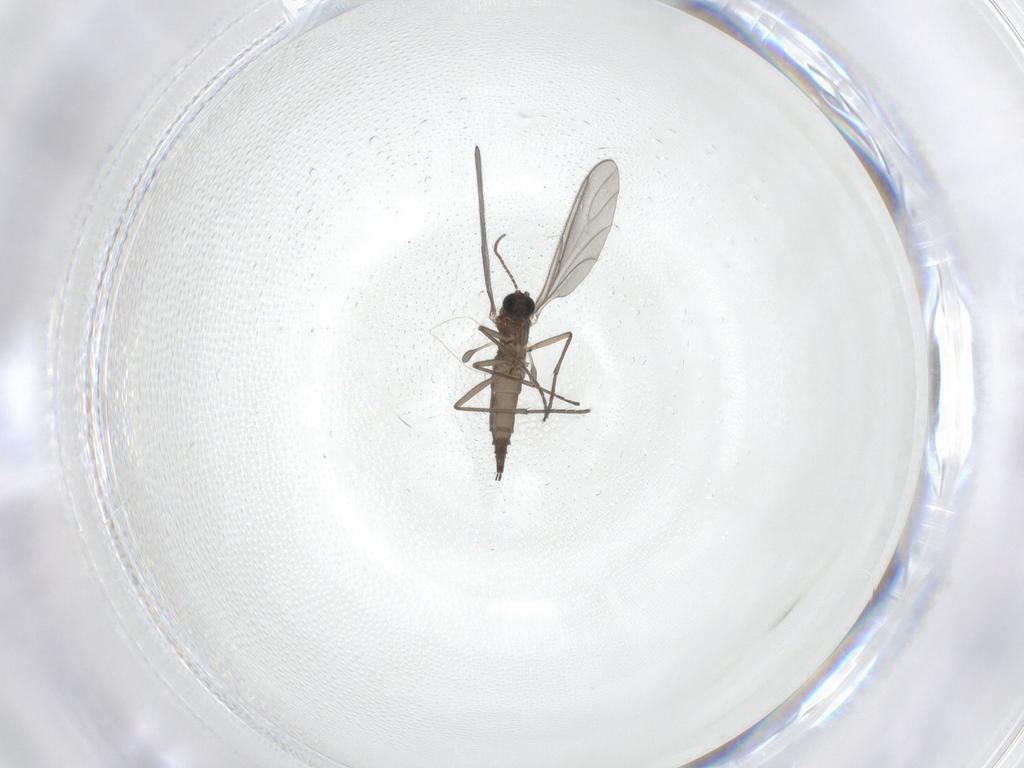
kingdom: Animalia
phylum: Arthropoda
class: Insecta
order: Diptera
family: Sciaridae
